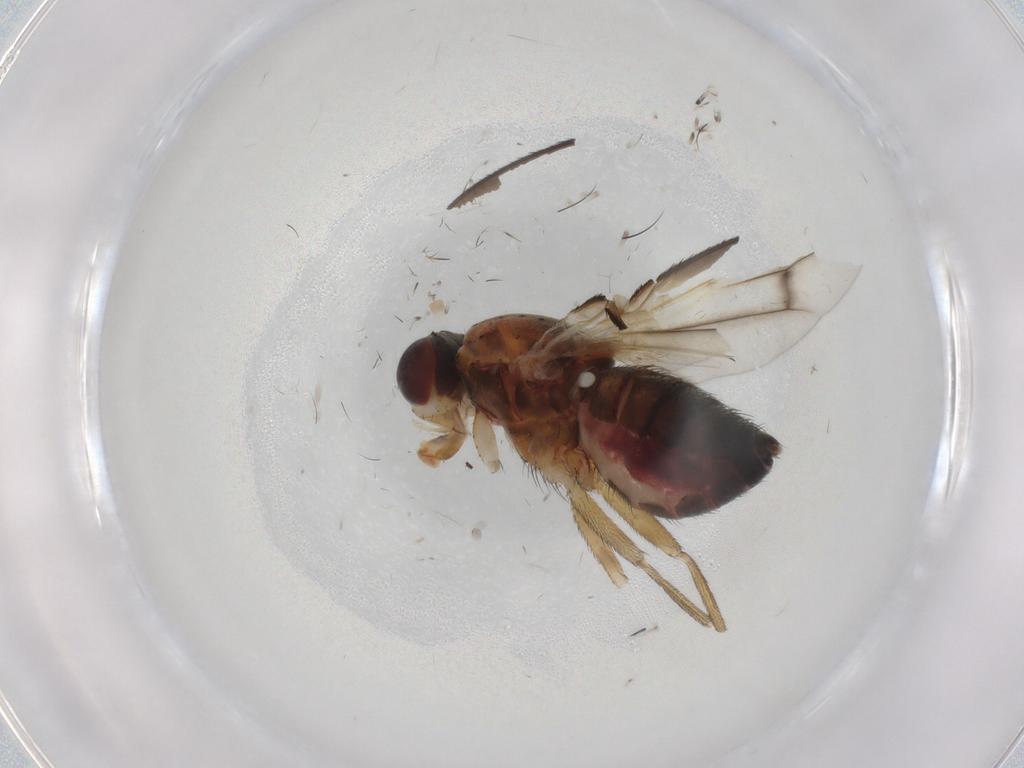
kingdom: Animalia
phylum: Arthropoda
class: Insecta
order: Diptera
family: Heleomyzidae
